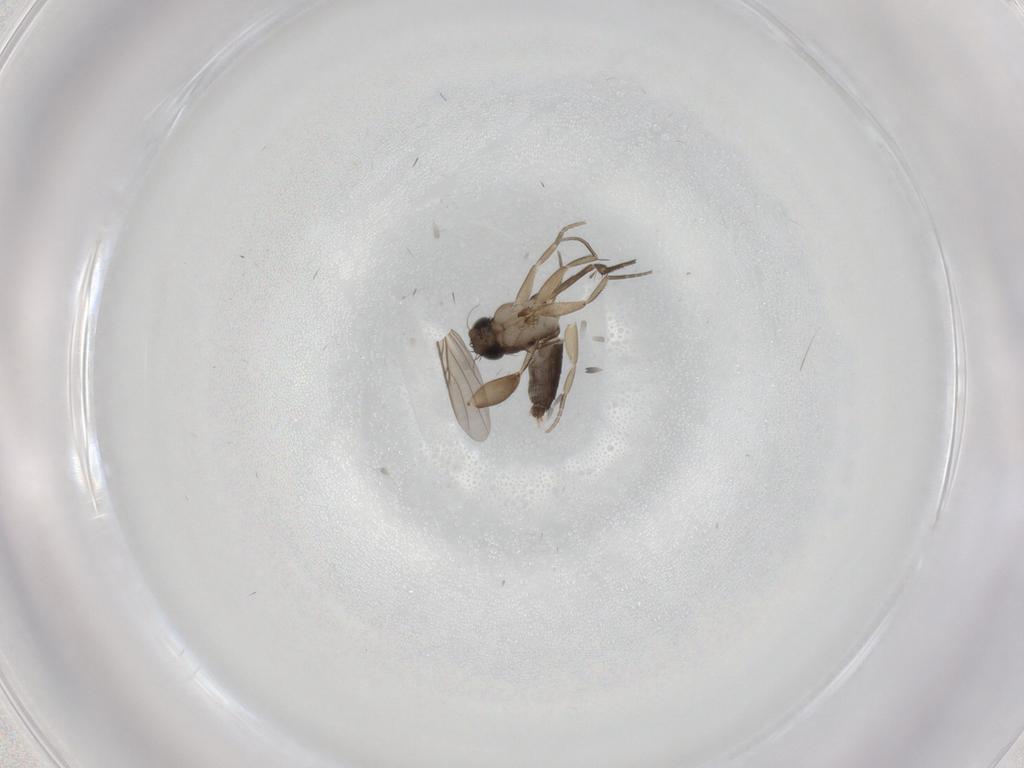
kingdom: Animalia
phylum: Arthropoda
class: Insecta
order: Diptera
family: Phoridae
